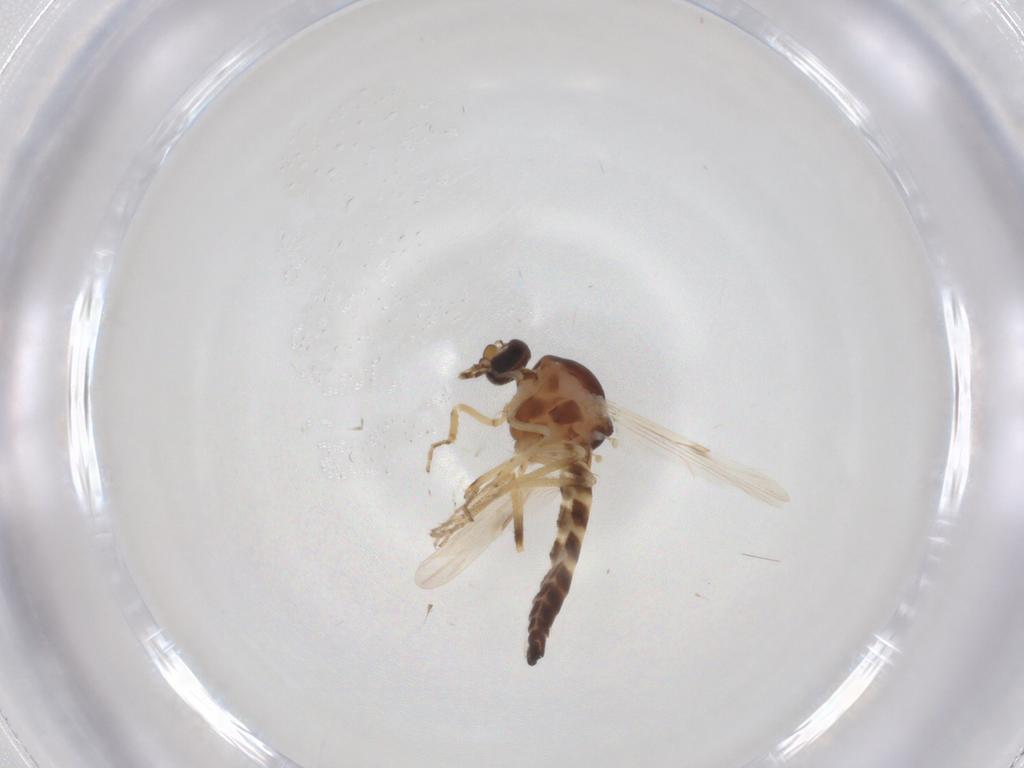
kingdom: Animalia
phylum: Arthropoda
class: Insecta
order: Diptera
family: Ceratopogonidae
